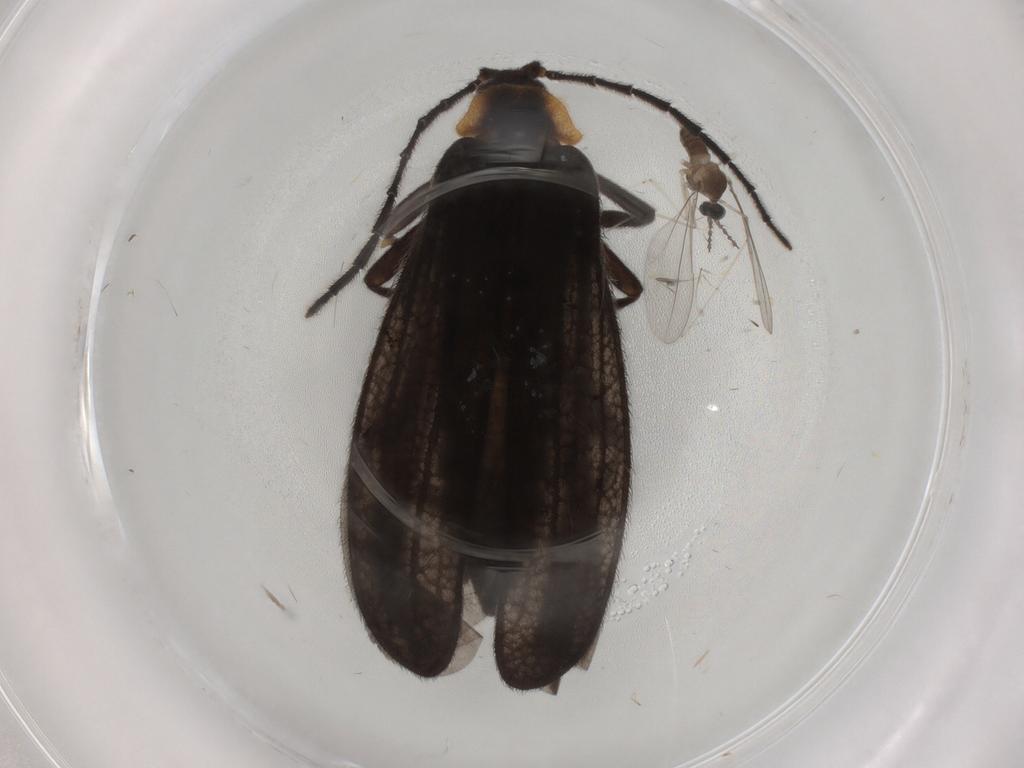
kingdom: Animalia
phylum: Arthropoda
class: Insecta
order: Coleoptera
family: Lycidae
